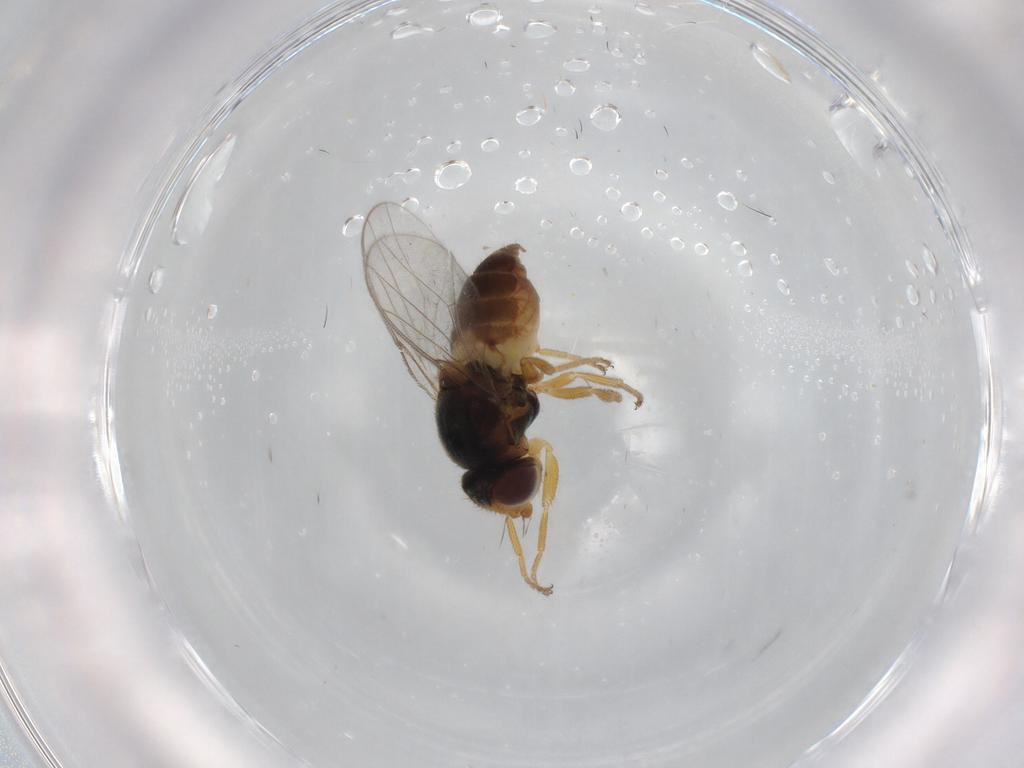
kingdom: Animalia
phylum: Arthropoda
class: Insecta
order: Diptera
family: Chloropidae
